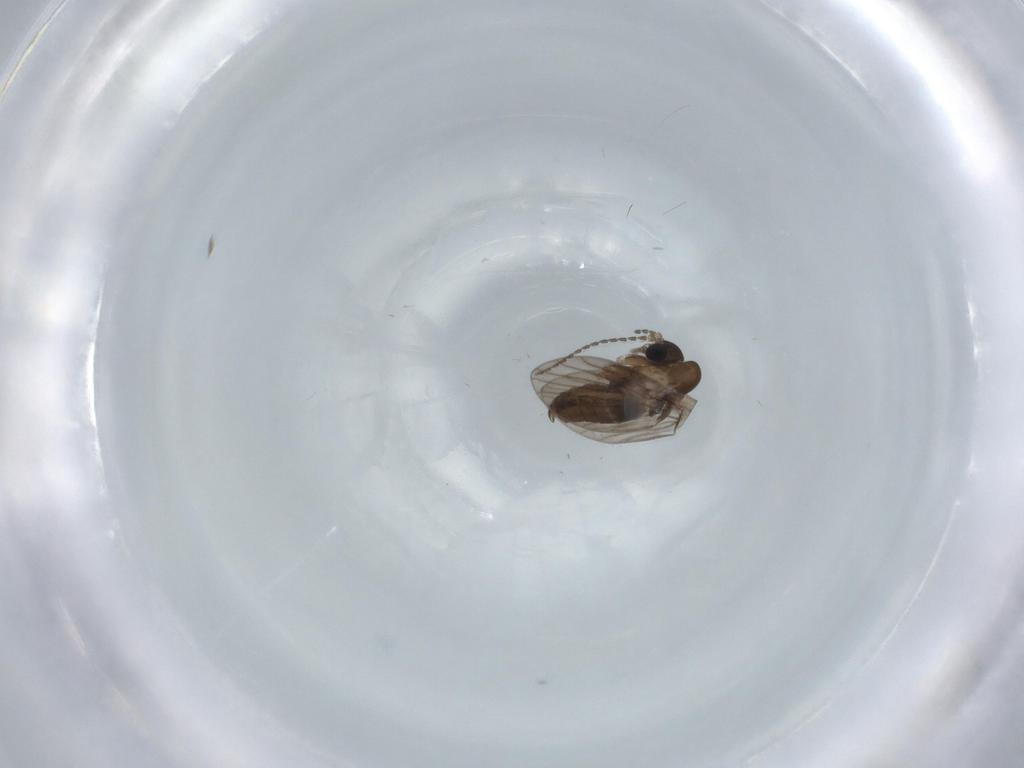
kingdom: Animalia
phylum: Arthropoda
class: Insecta
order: Diptera
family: Psychodidae
